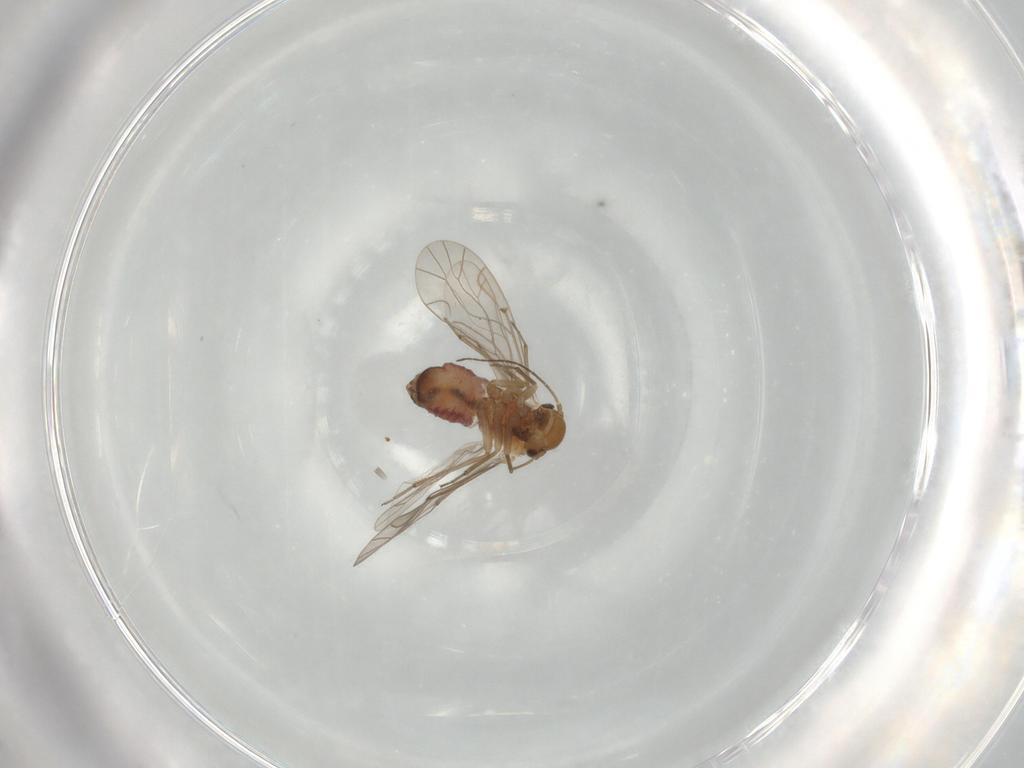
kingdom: Animalia
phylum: Arthropoda
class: Insecta
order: Psocodea
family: Lachesillidae
